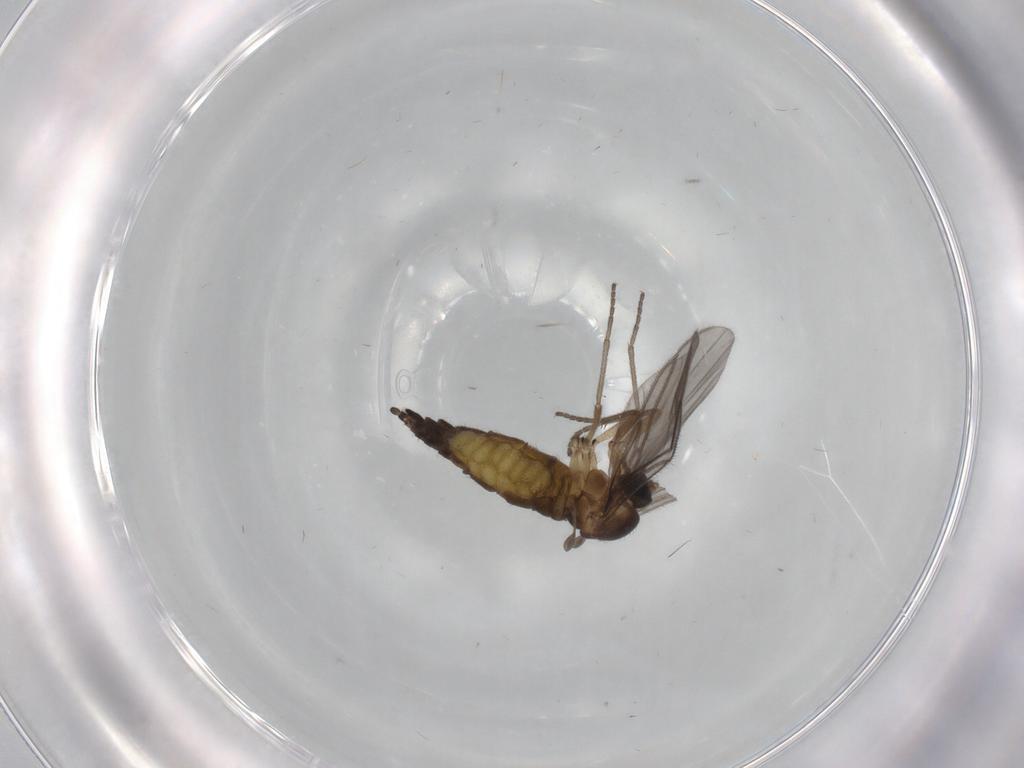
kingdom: Animalia
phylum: Arthropoda
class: Insecta
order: Diptera
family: Sciaridae
